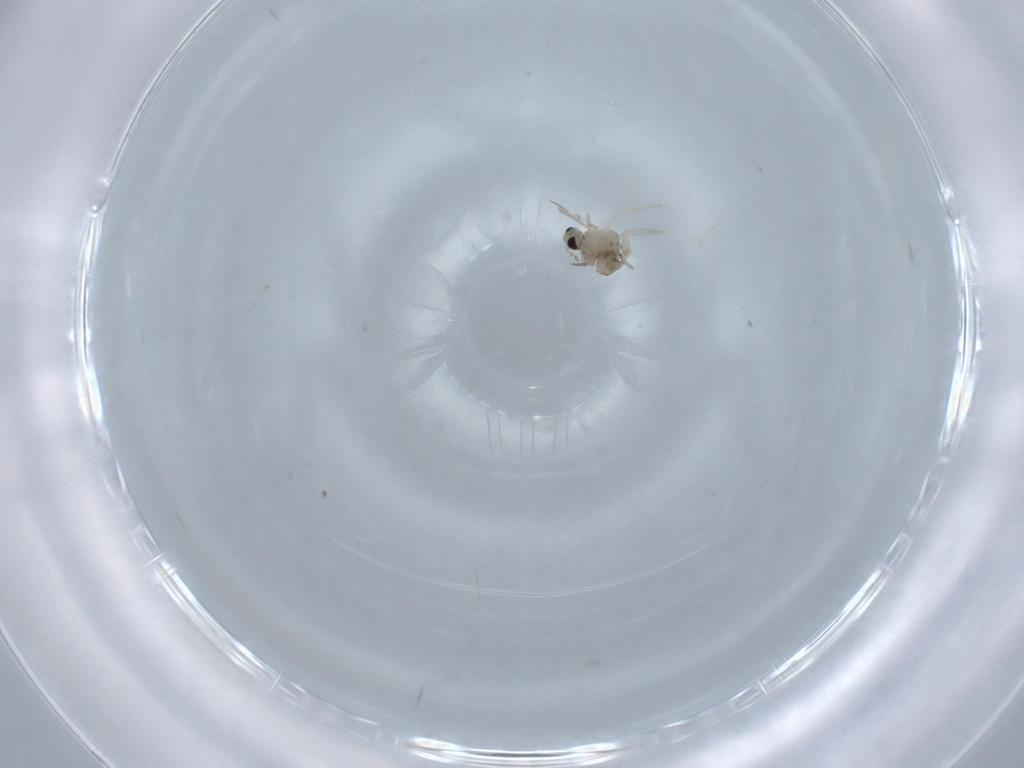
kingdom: Animalia
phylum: Arthropoda
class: Insecta
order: Diptera
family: Cecidomyiidae
